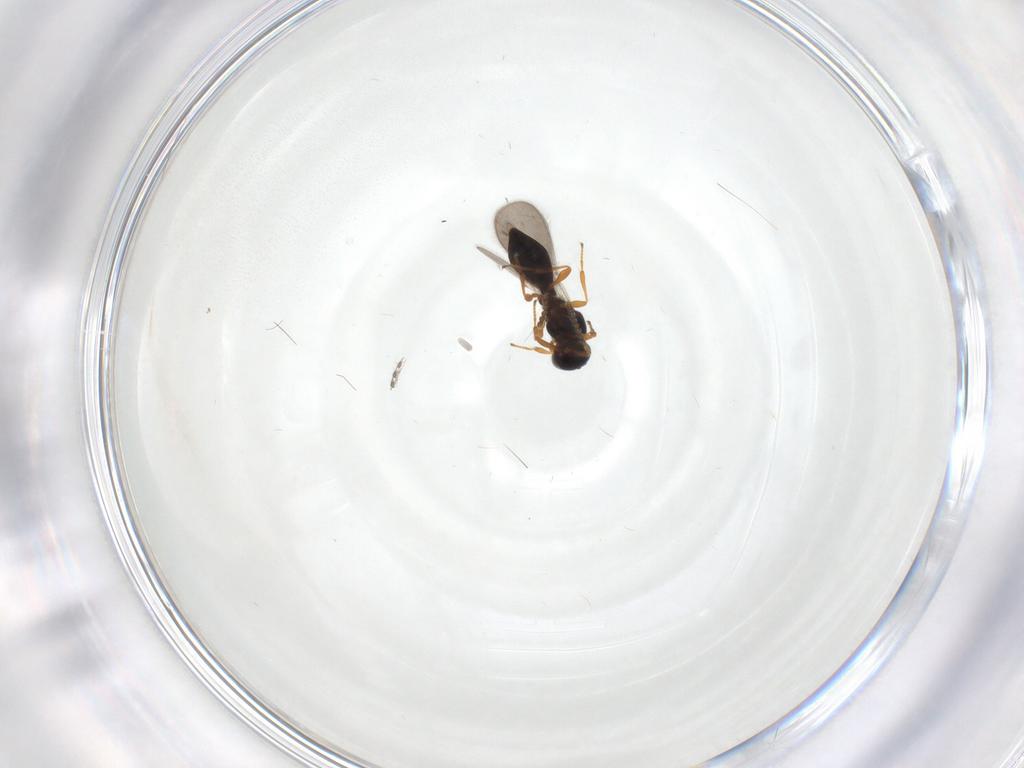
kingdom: Animalia
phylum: Arthropoda
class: Insecta
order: Hymenoptera
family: Platygastridae
